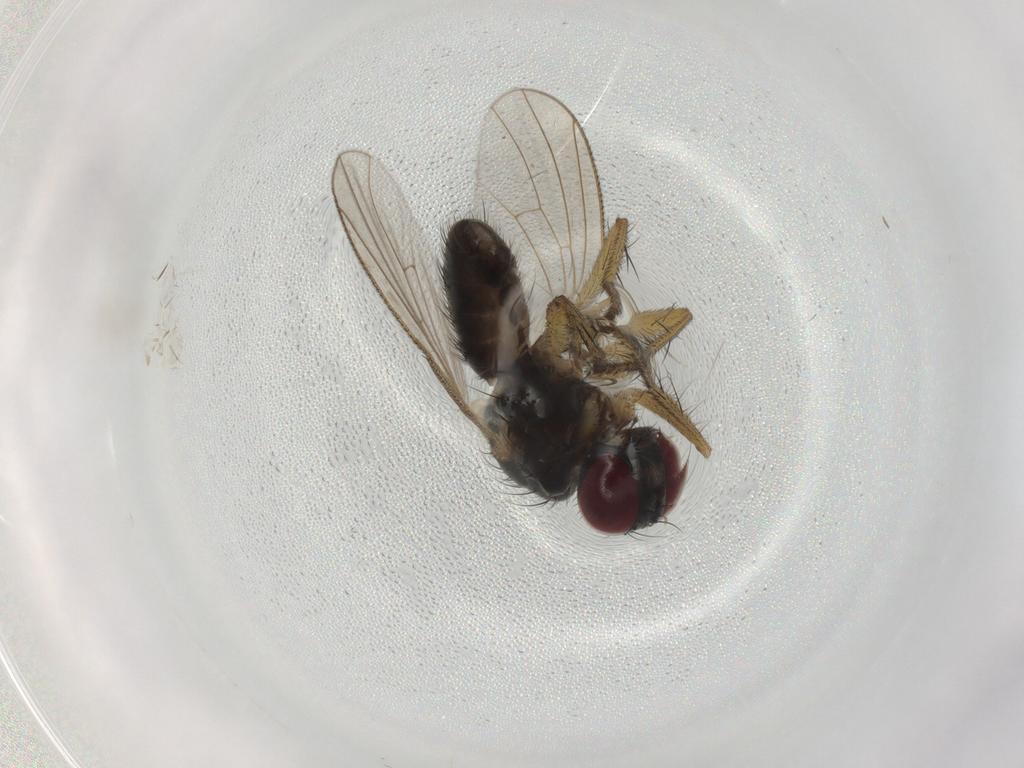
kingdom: Animalia
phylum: Arthropoda
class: Insecta
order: Diptera
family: Muscidae
